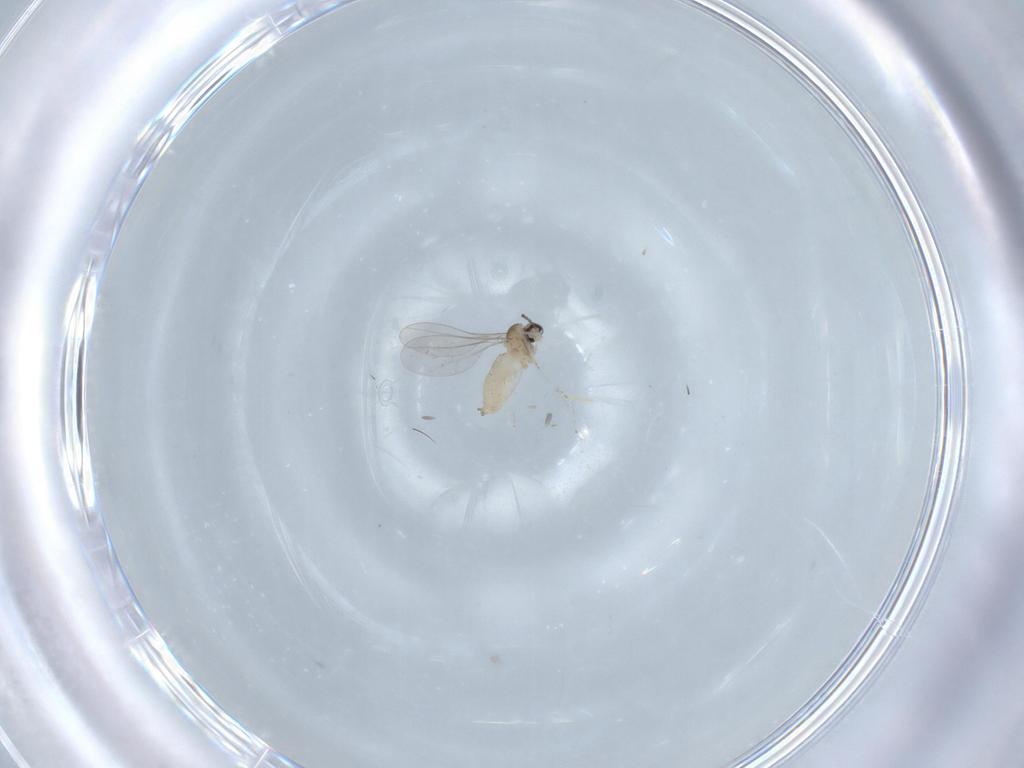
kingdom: Animalia
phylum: Arthropoda
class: Insecta
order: Diptera
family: Cecidomyiidae
